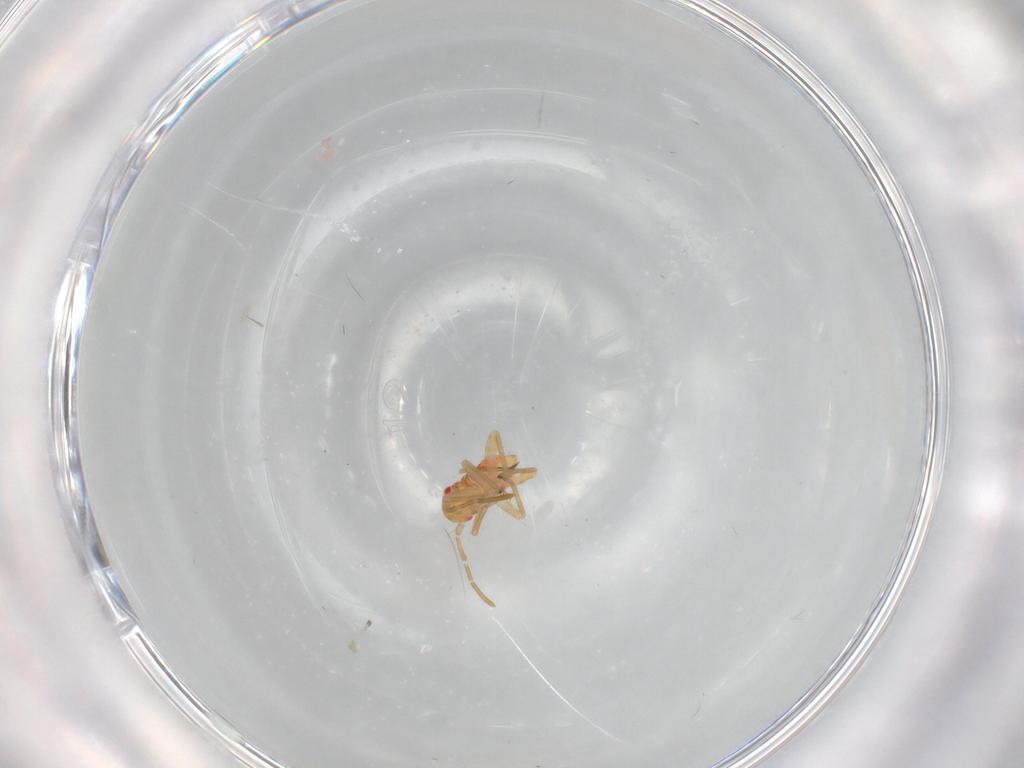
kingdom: Animalia
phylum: Arthropoda
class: Insecta
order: Hemiptera
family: Miridae
